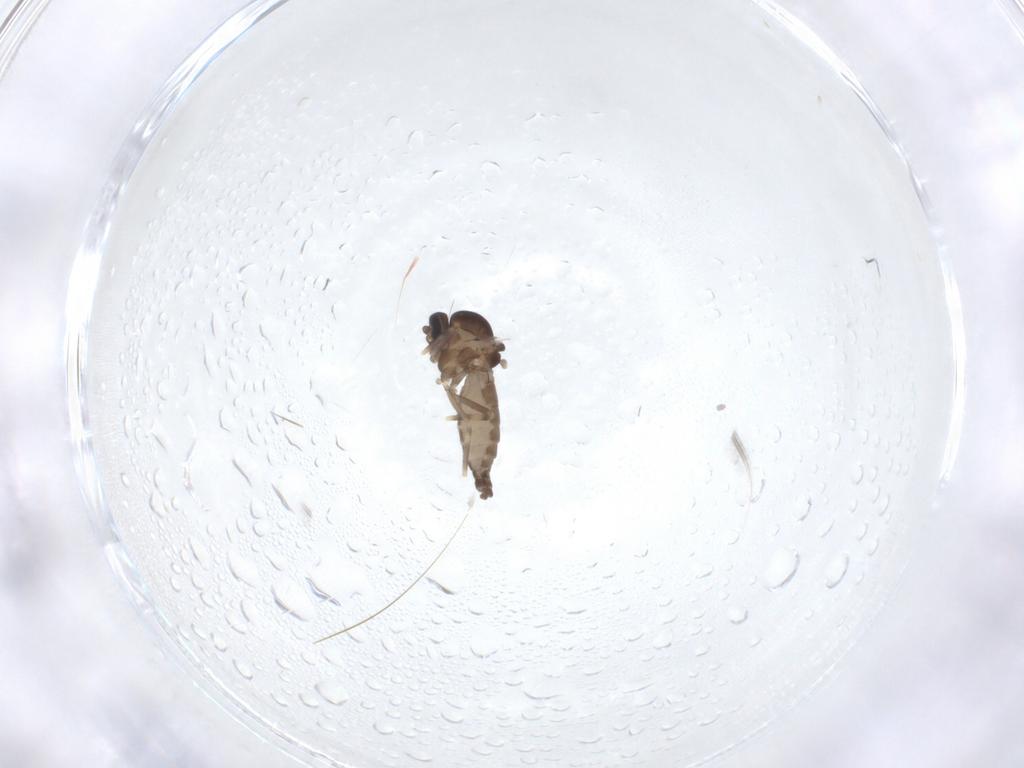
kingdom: Animalia
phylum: Arthropoda
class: Insecta
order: Diptera
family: Ceratopogonidae
